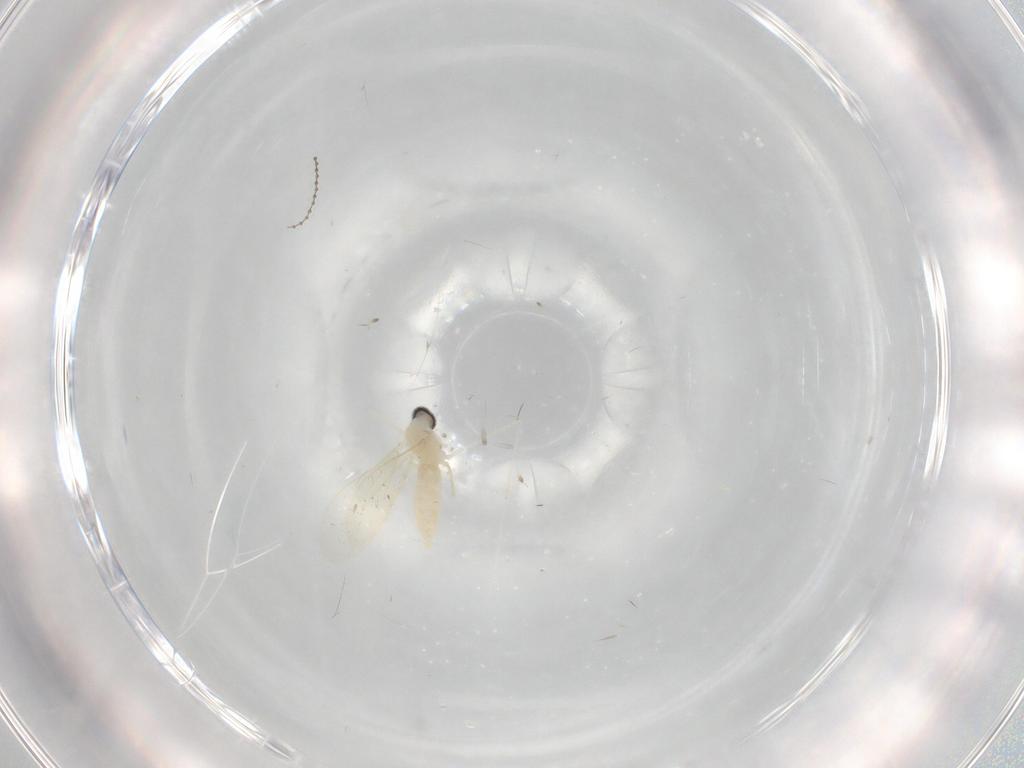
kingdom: Animalia
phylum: Arthropoda
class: Insecta
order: Diptera
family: Cecidomyiidae
